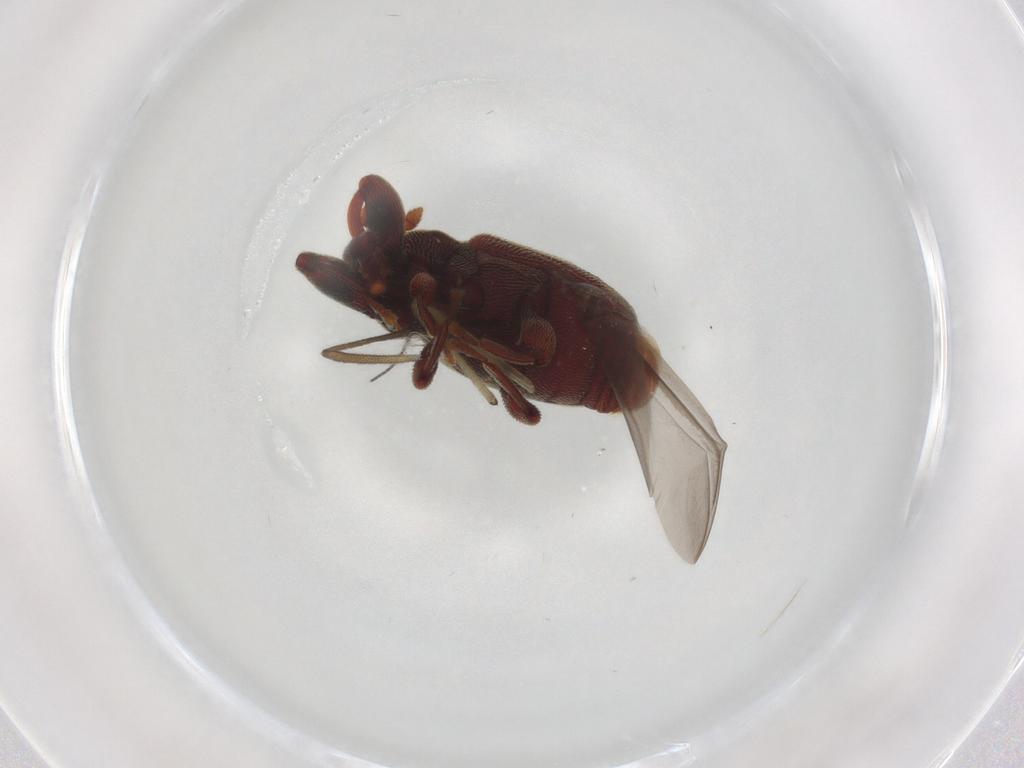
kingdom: Animalia
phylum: Arthropoda
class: Insecta
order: Coleoptera
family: Curculionidae
